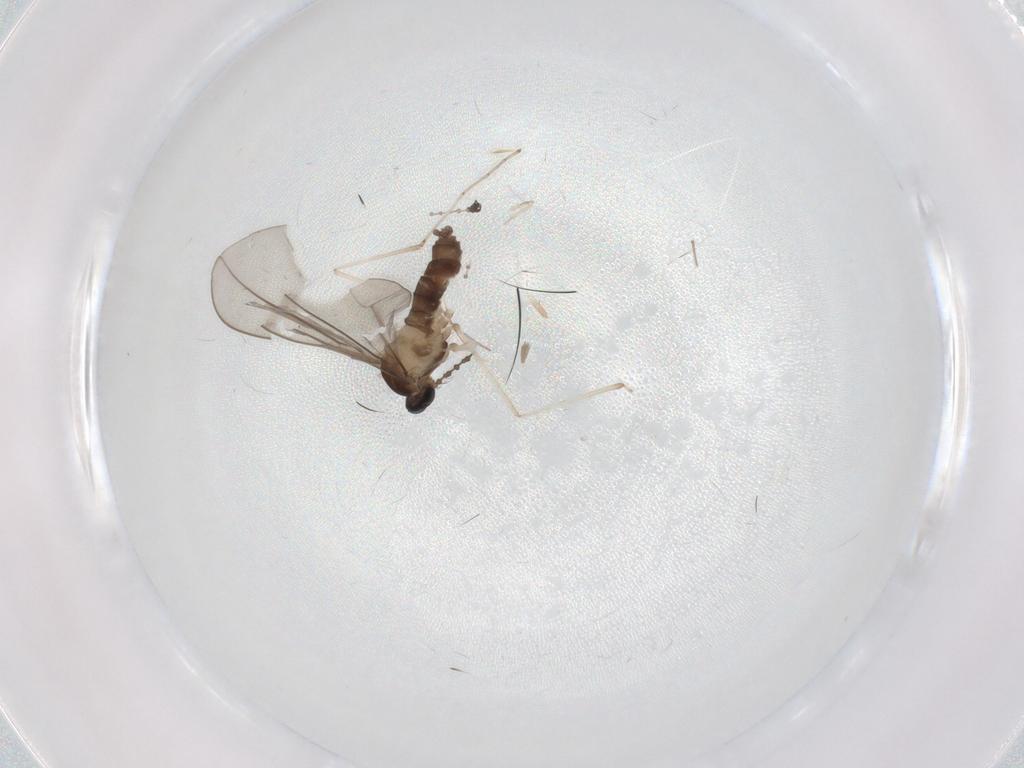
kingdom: Animalia
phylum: Arthropoda
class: Insecta
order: Diptera
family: Cecidomyiidae
